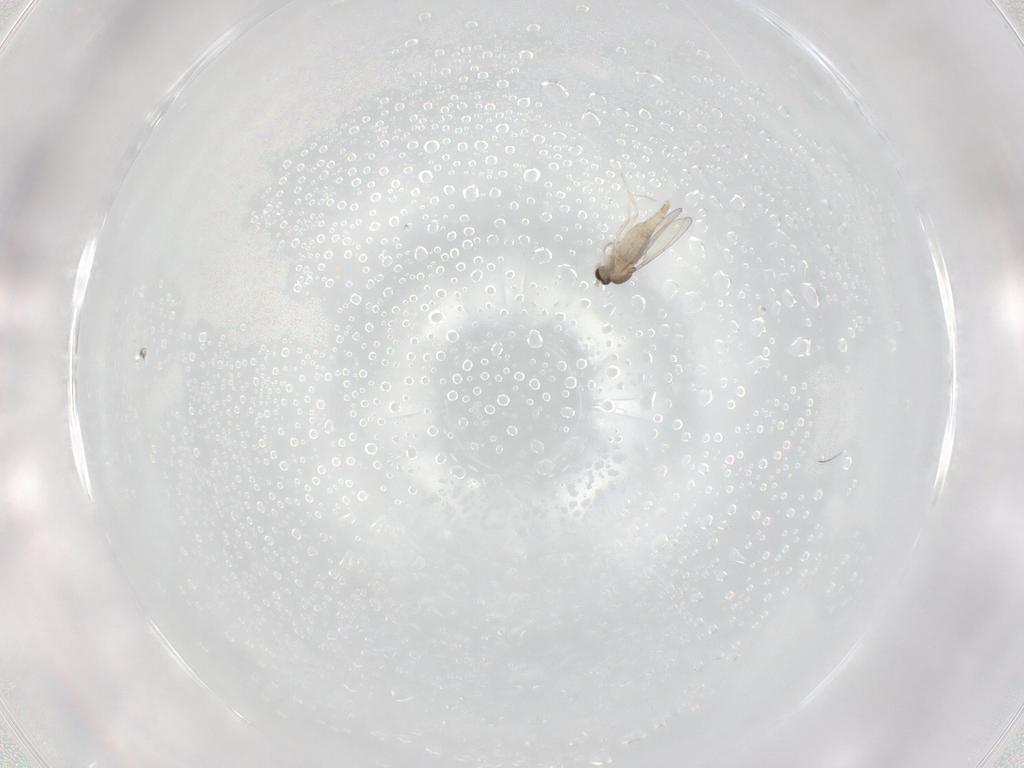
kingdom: Animalia
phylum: Arthropoda
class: Insecta
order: Diptera
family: Cecidomyiidae
